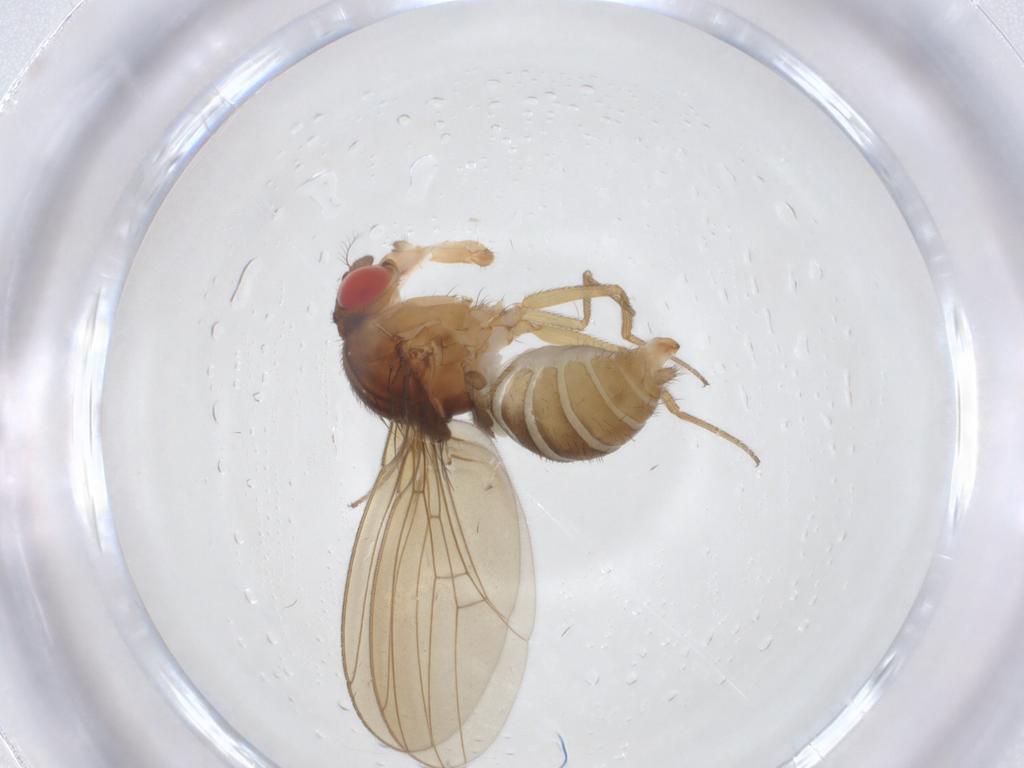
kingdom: Animalia
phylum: Arthropoda
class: Insecta
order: Diptera
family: Drosophilidae
